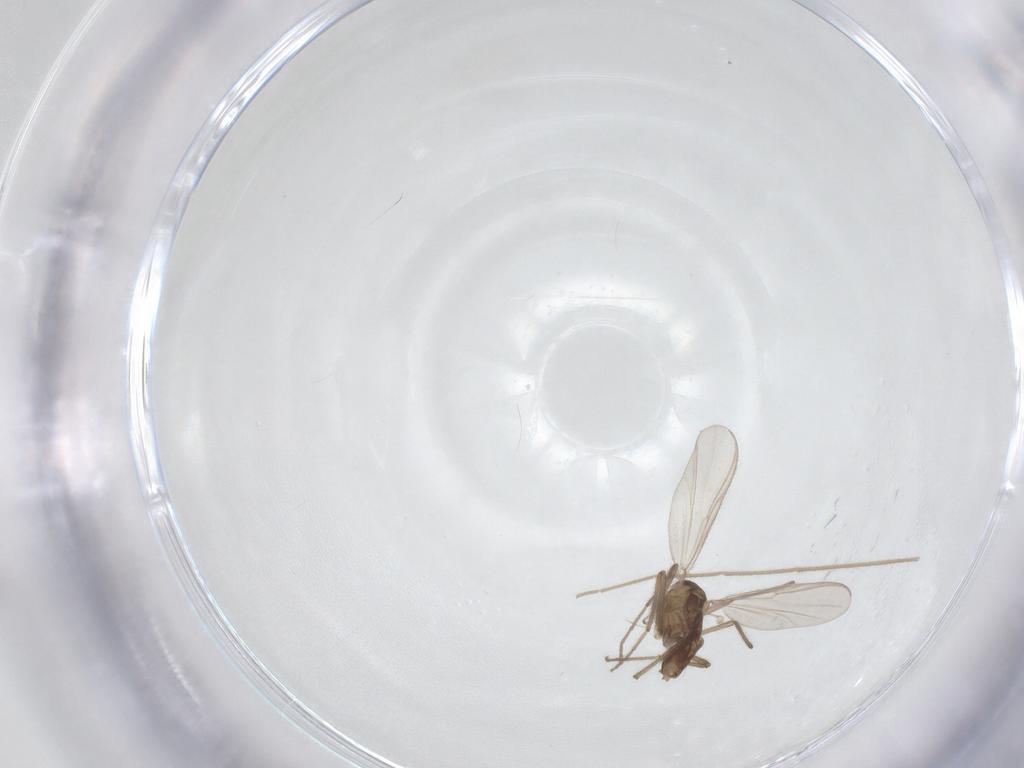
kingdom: Animalia
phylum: Arthropoda
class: Insecta
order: Diptera
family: Chironomidae
